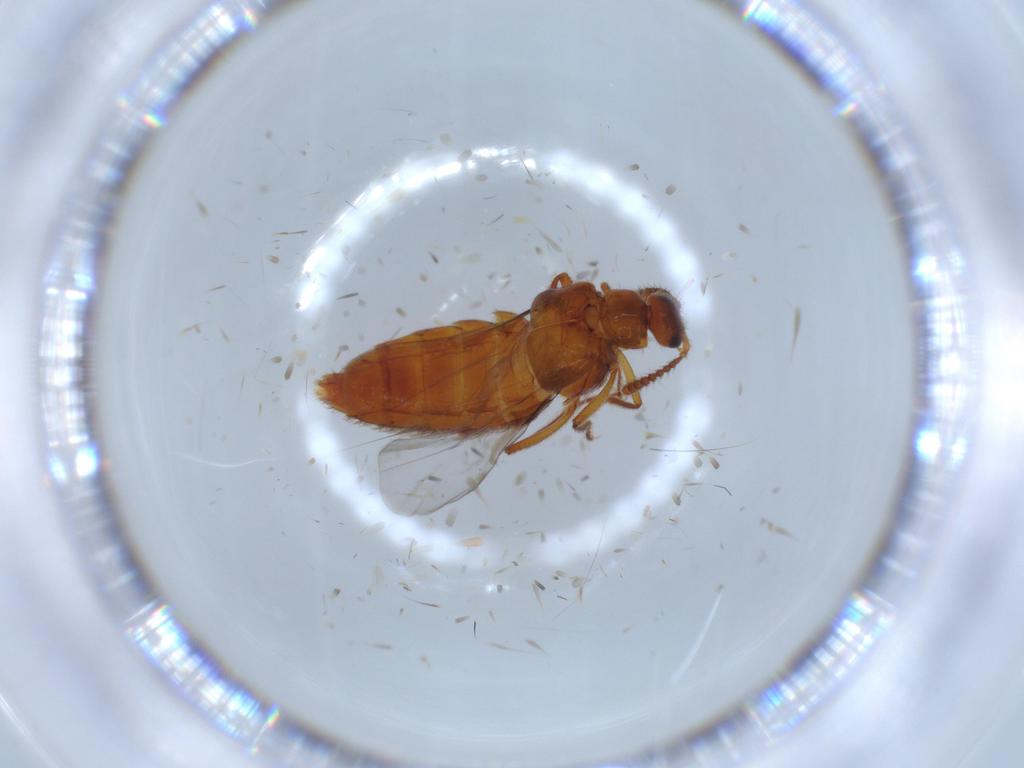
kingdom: Animalia
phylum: Arthropoda
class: Insecta
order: Coleoptera
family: Staphylinidae
